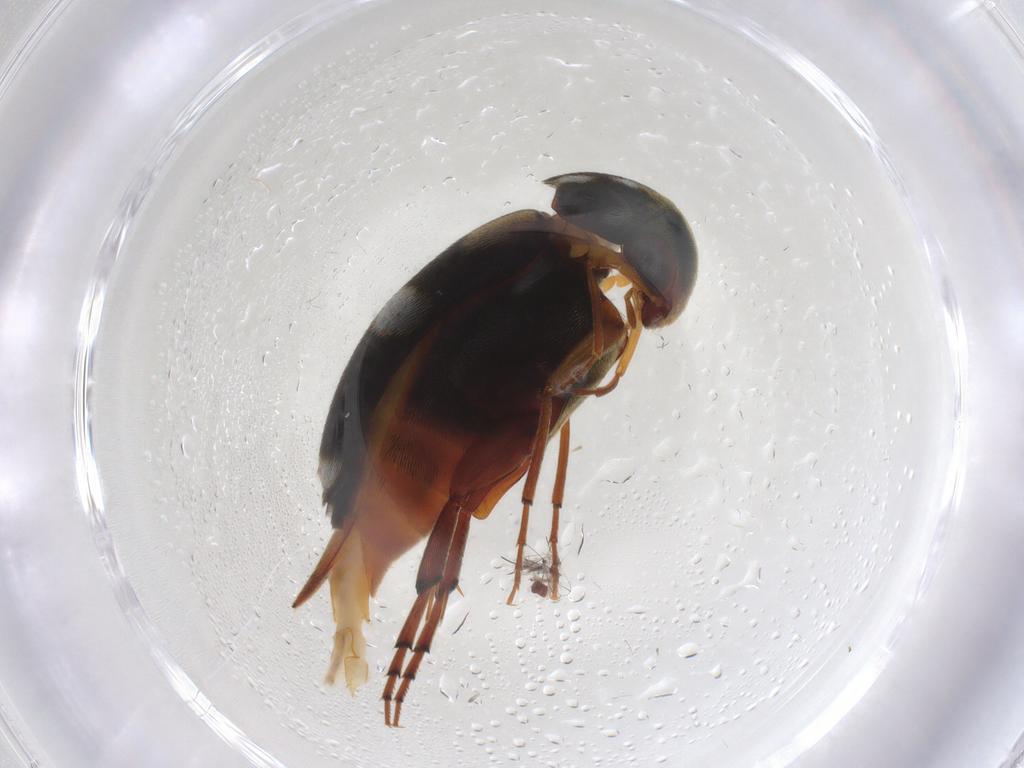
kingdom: Animalia
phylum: Arthropoda
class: Insecta
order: Coleoptera
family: Mordellidae
